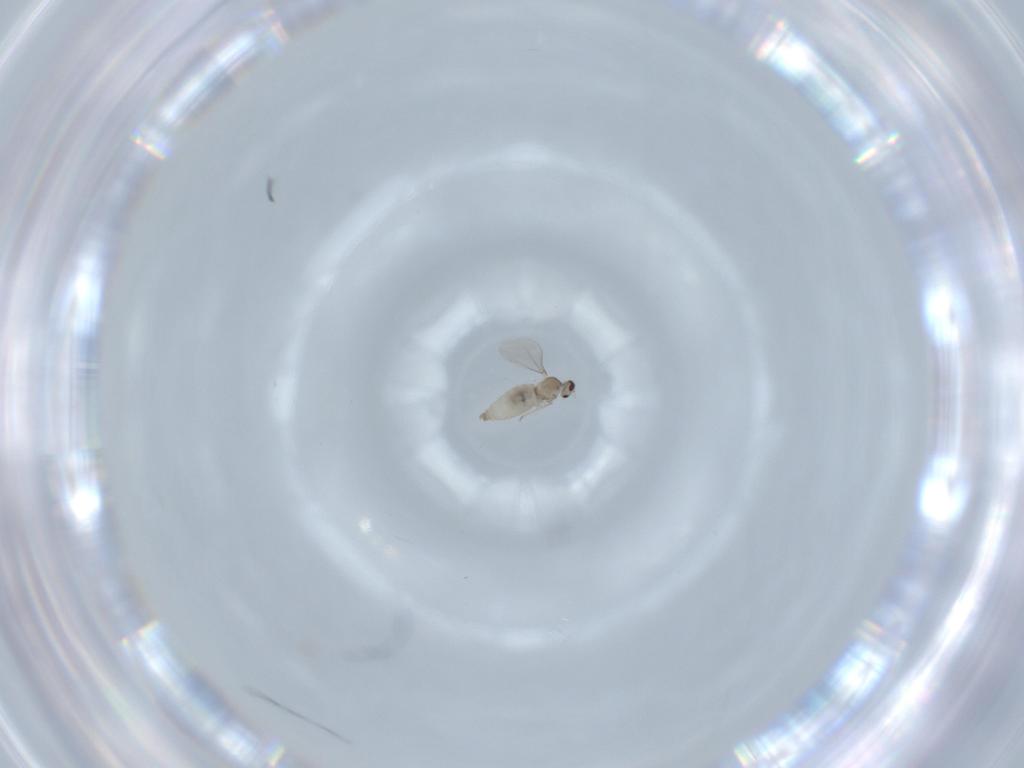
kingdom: Animalia
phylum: Arthropoda
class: Insecta
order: Diptera
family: Cecidomyiidae
